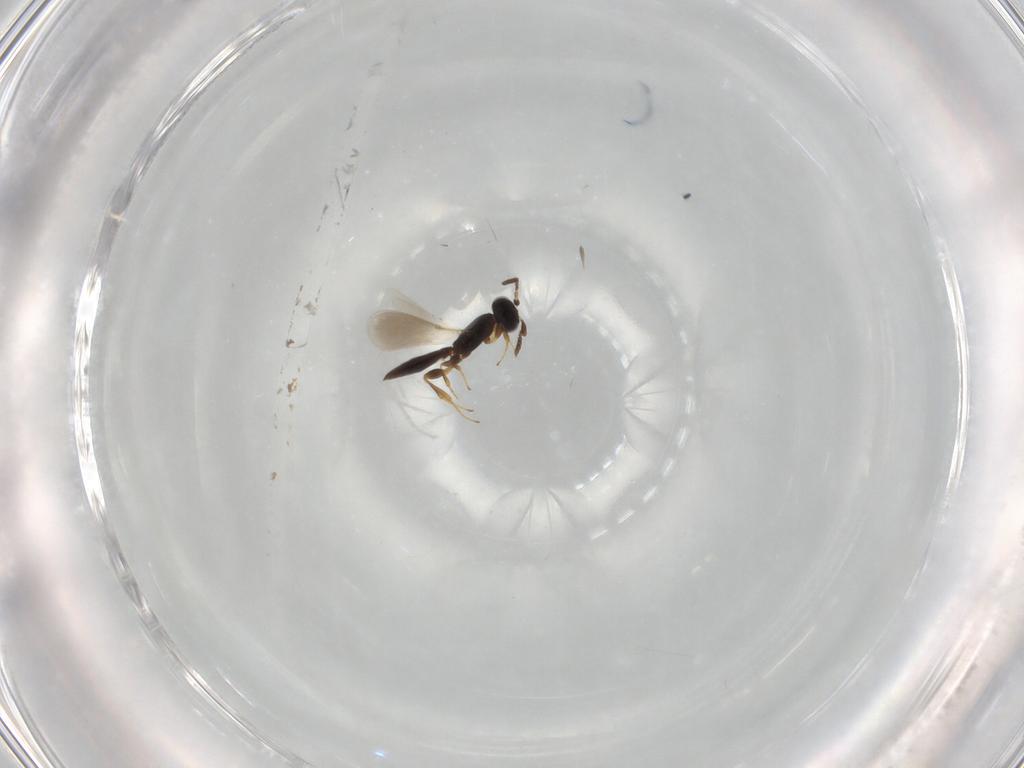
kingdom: Animalia
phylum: Arthropoda
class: Insecta
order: Hymenoptera
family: Platygastridae
